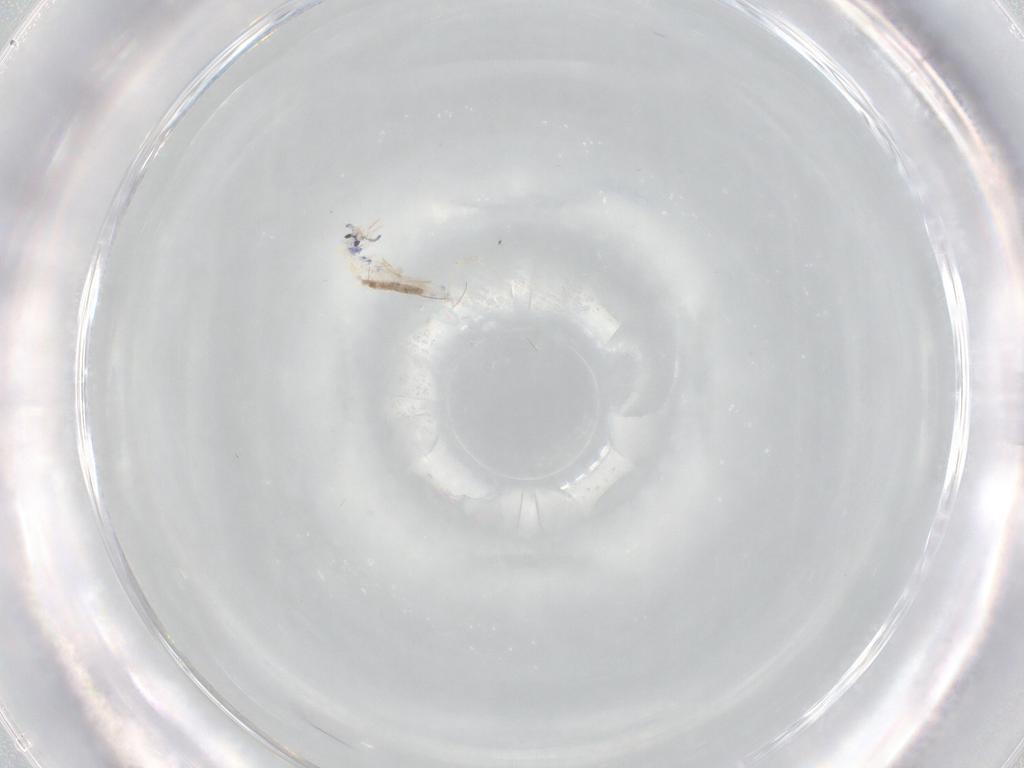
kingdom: Animalia
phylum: Arthropoda
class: Collembola
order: Entomobryomorpha
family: Entomobryidae
